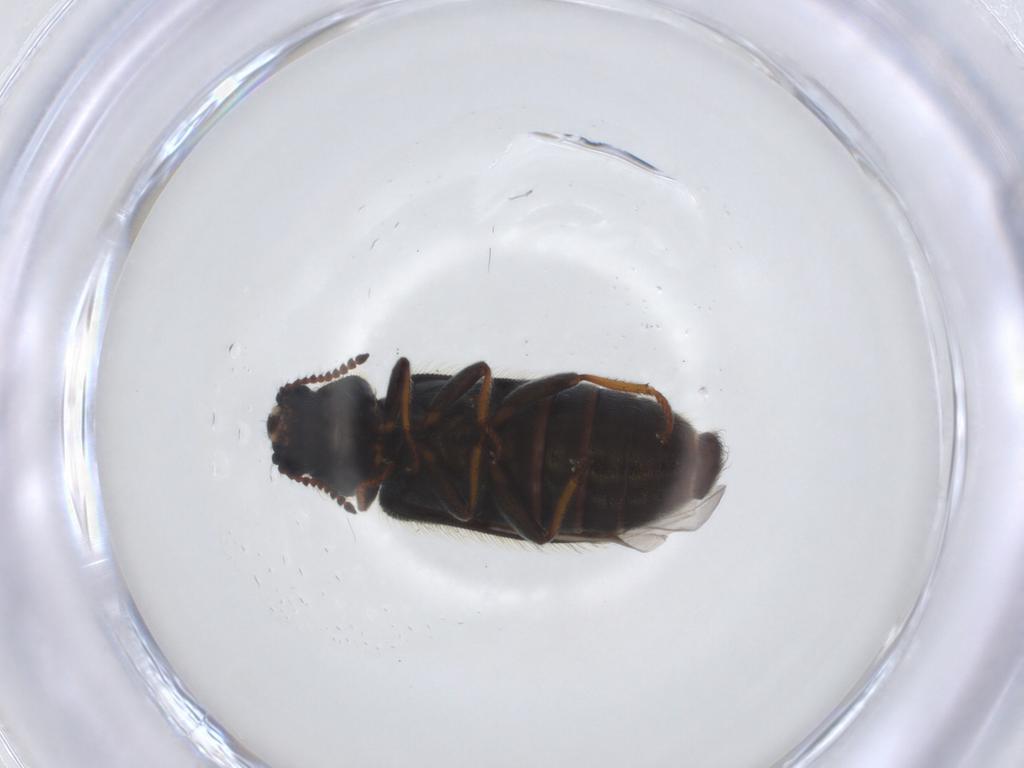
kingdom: Animalia
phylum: Arthropoda
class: Insecta
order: Coleoptera
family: Melyridae
